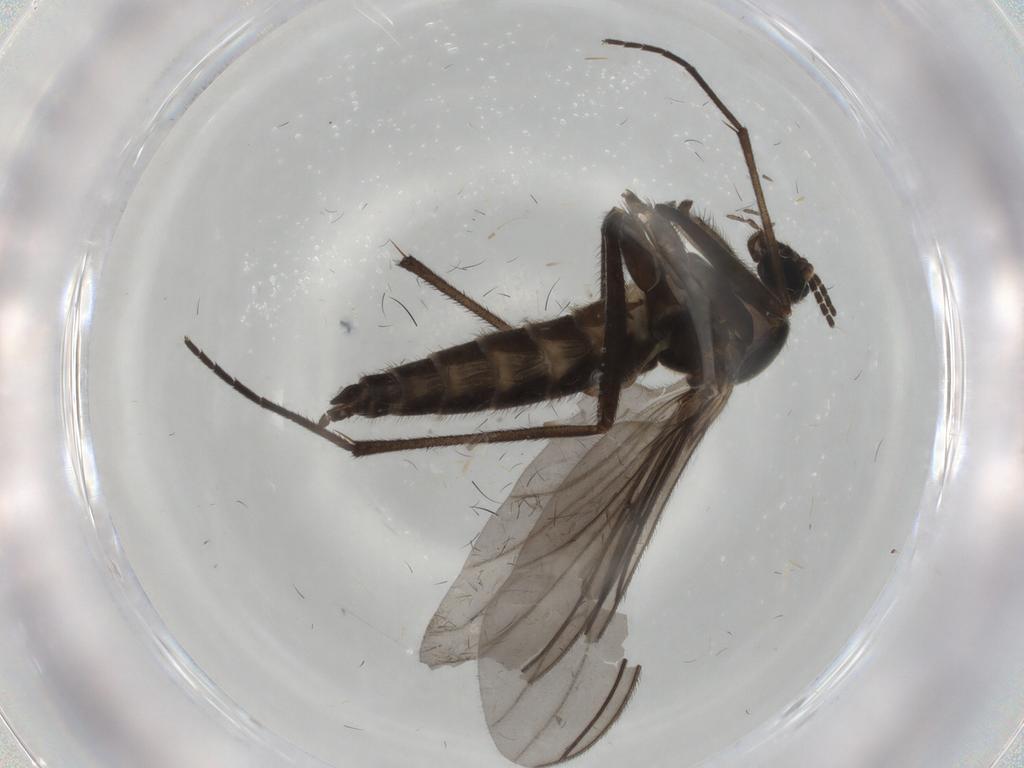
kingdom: Animalia
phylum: Arthropoda
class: Insecta
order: Diptera
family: Sciaridae
